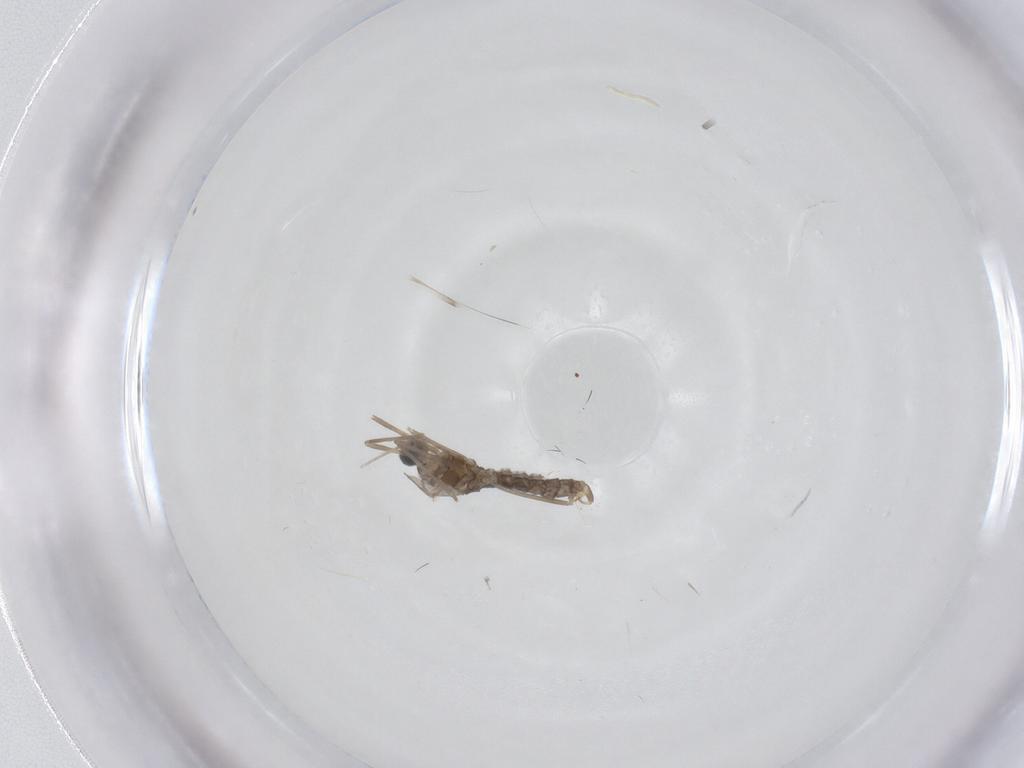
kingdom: Animalia
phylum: Arthropoda
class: Insecta
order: Diptera
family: Cecidomyiidae
